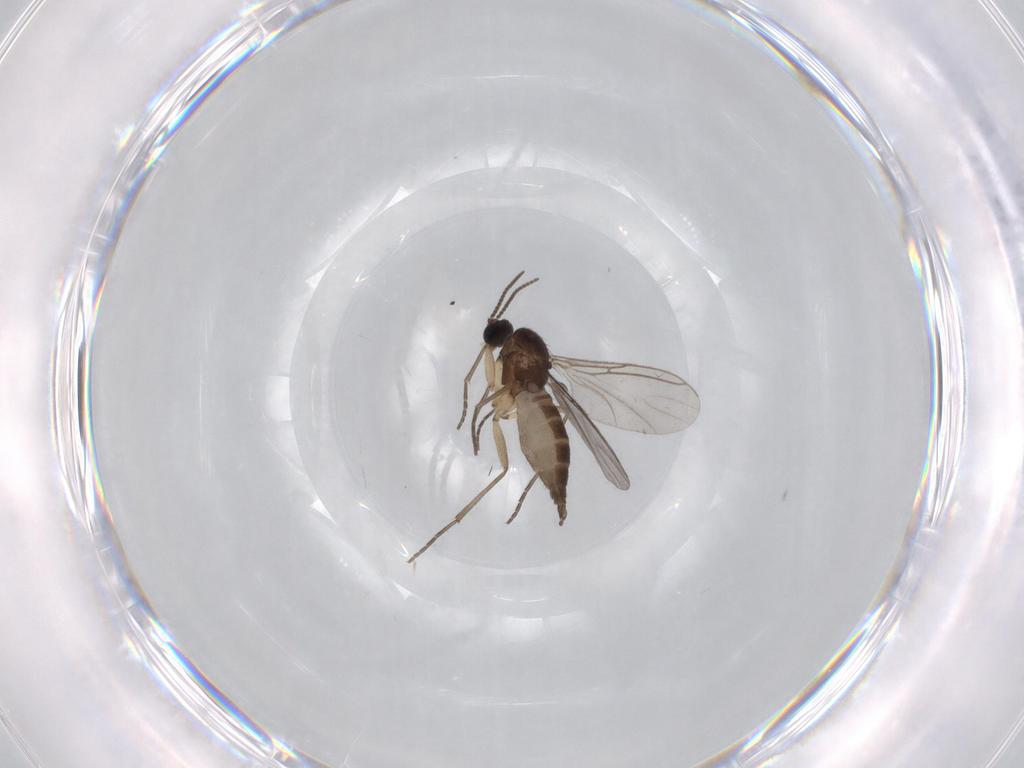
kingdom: Animalia
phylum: Arthropoda
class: Insecta
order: Diptera
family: Sciaridae
